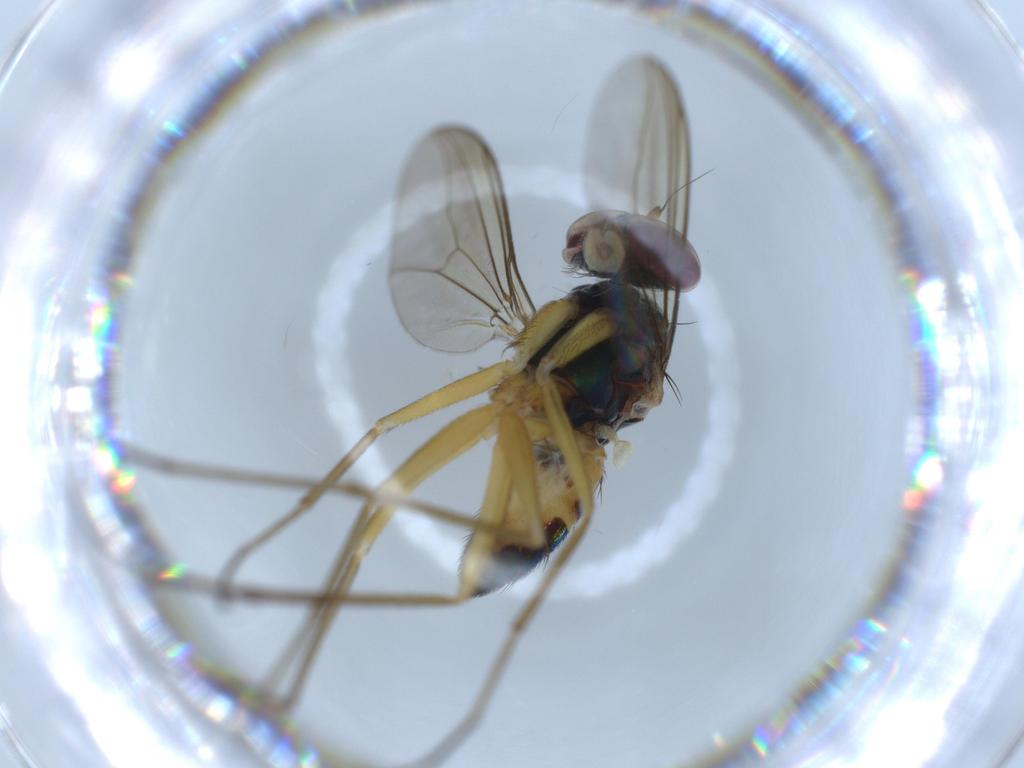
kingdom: Animalia
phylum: Arthropoda
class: Insecta
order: Diptera
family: Dolichopodidae
